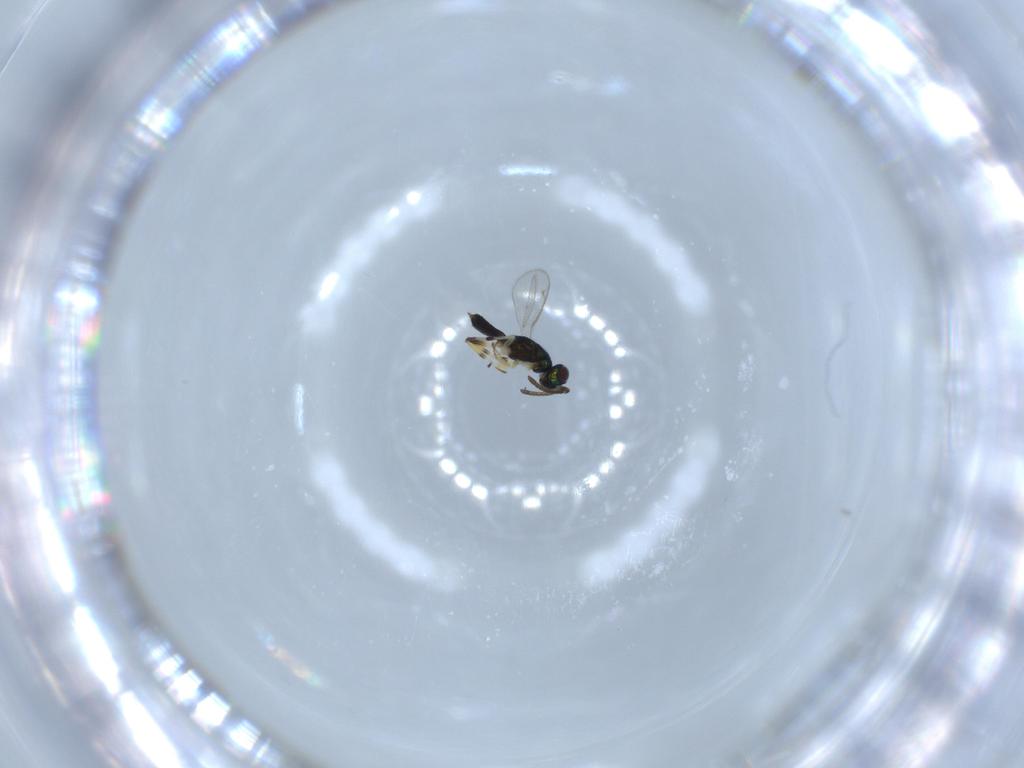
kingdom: Animalia
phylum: Arthropoda
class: Insecta
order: Hymenoptera
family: Eupelmidae
